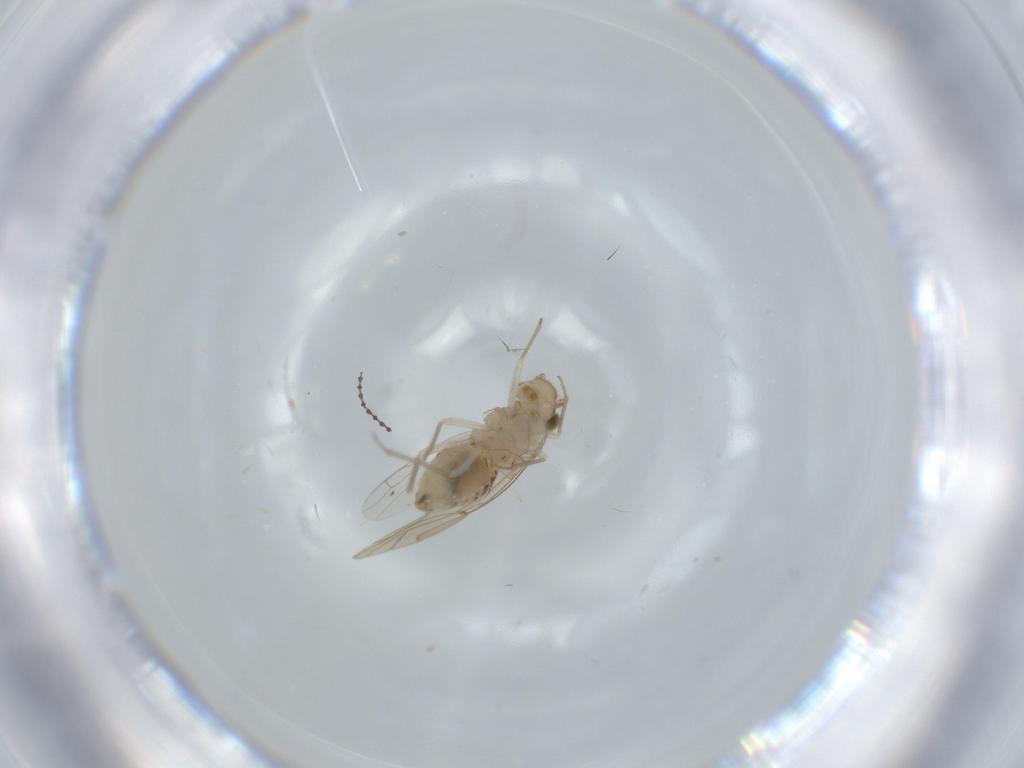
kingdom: Animalia
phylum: Arthropoda
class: Insecta
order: Psocodea
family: Lachesillidae
